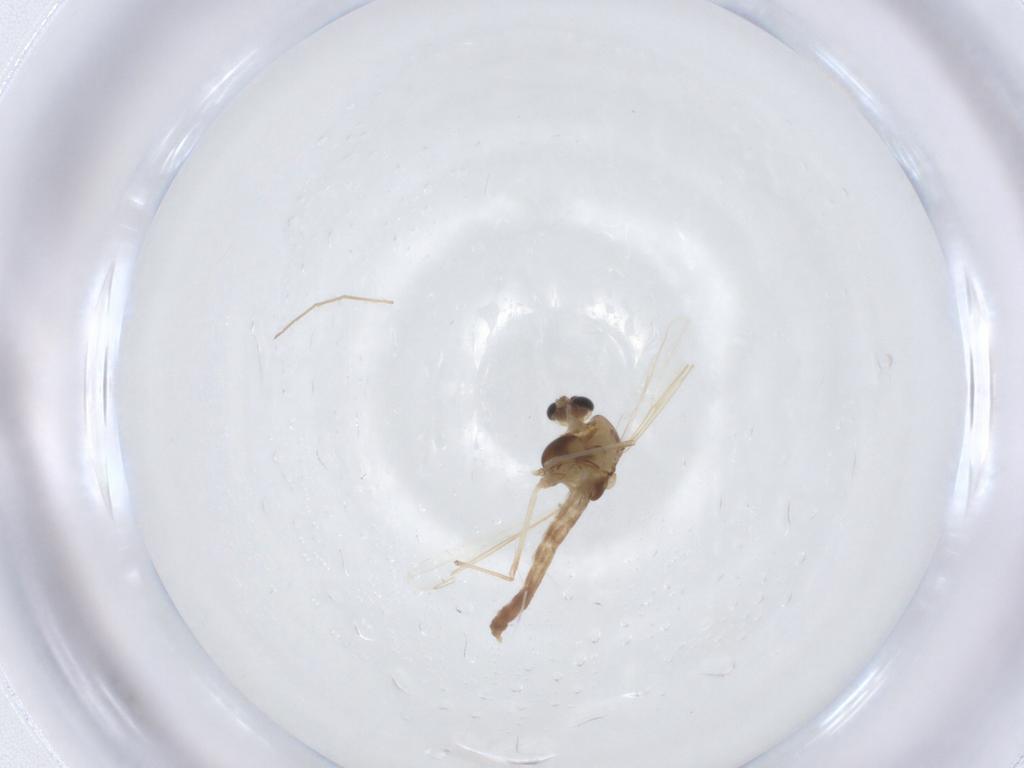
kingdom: Animalia
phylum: Arthropoda
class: Insecta
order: Diptera
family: Chironomidae
